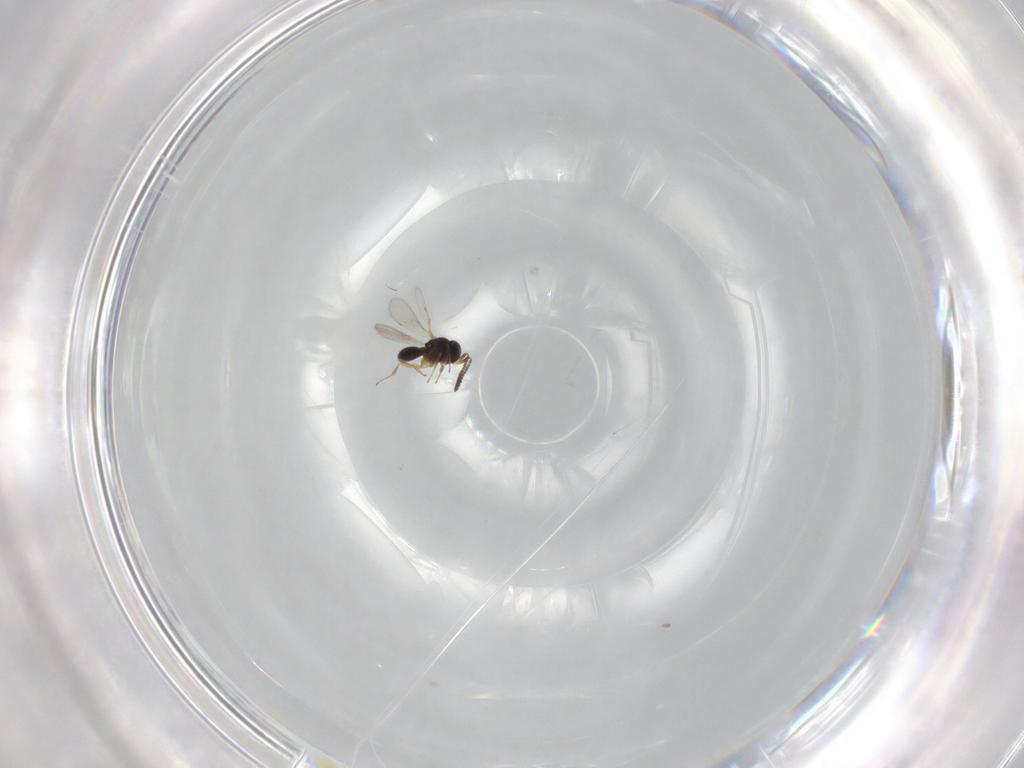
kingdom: Animalia
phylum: Arthropoda
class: Insecta
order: Hymenoptera
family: Scelionidae
